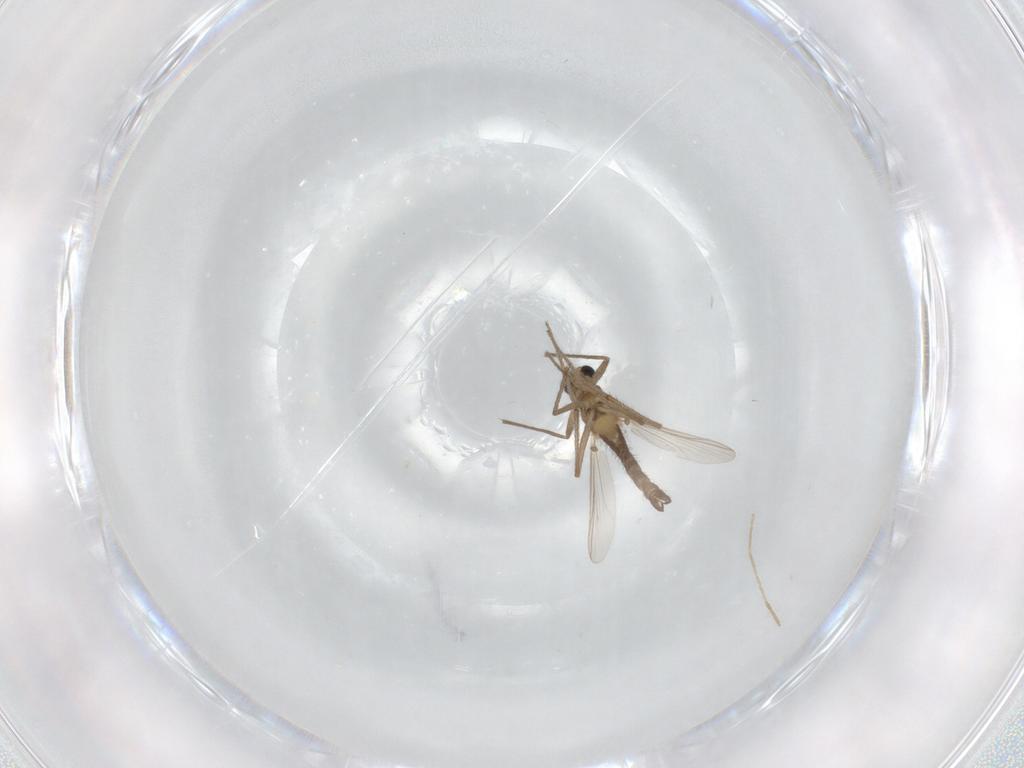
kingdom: Animalia
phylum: Arthropoda
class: Insecta
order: Diptera
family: Chironomidae
